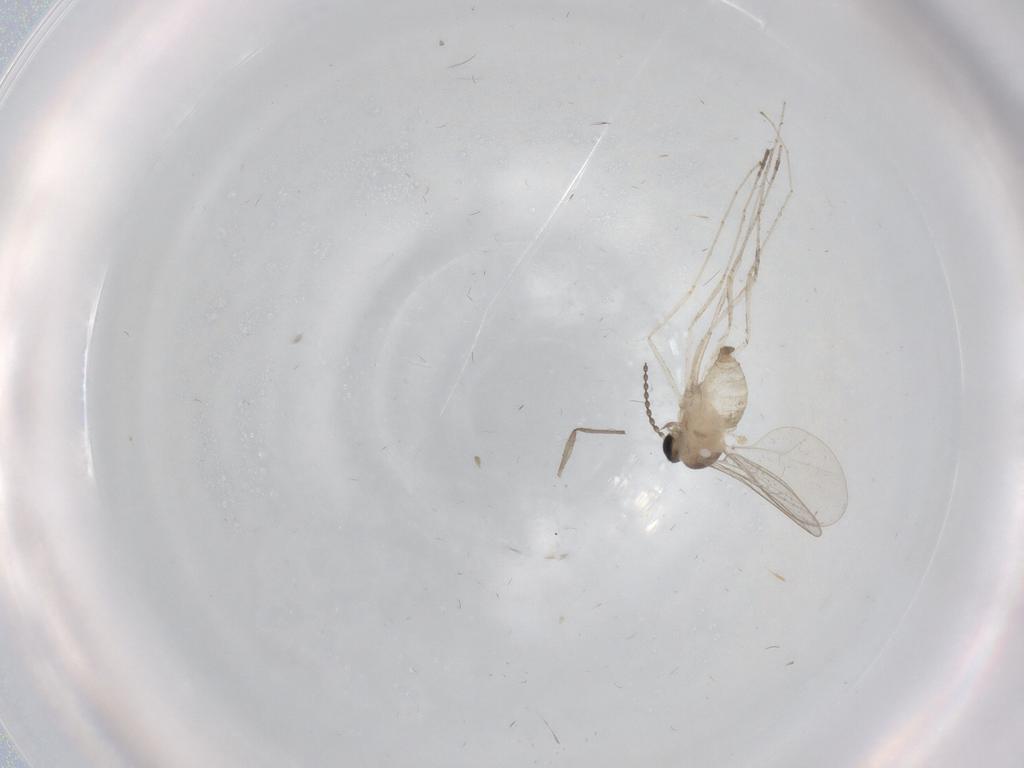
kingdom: Animalia
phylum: Arthropoda
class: Insecta
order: Diptera
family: Cecidomyiidae
